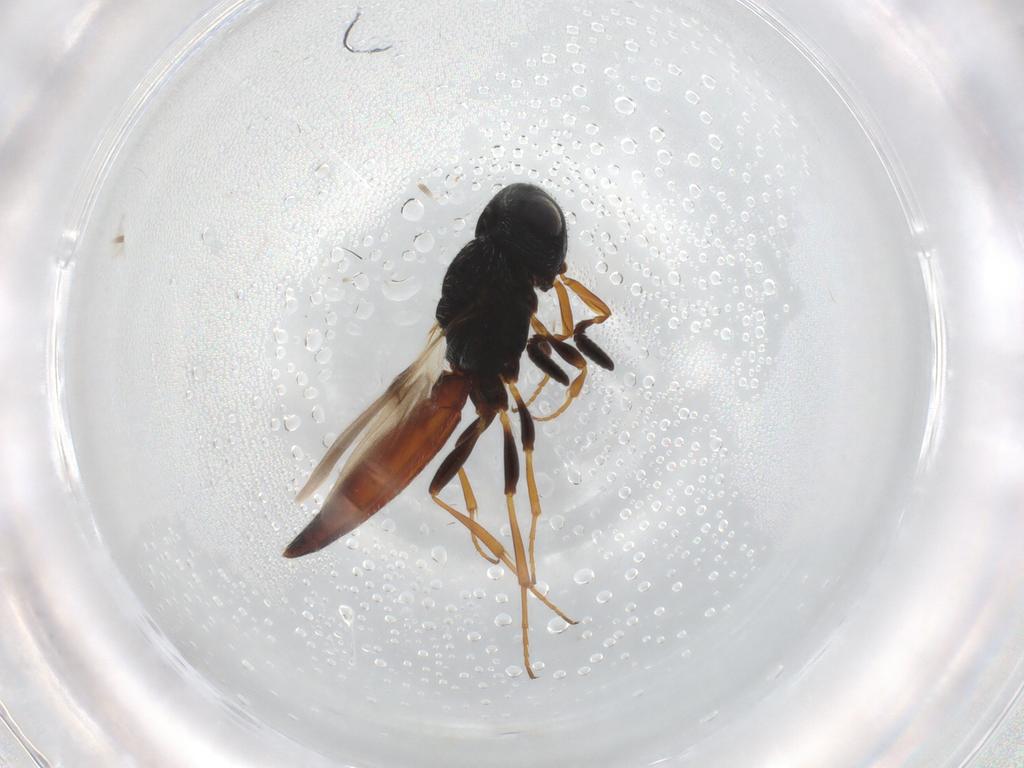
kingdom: Animalia
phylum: Arthropoda
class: Insecta
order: Hymenoptera
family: Scelionidae
